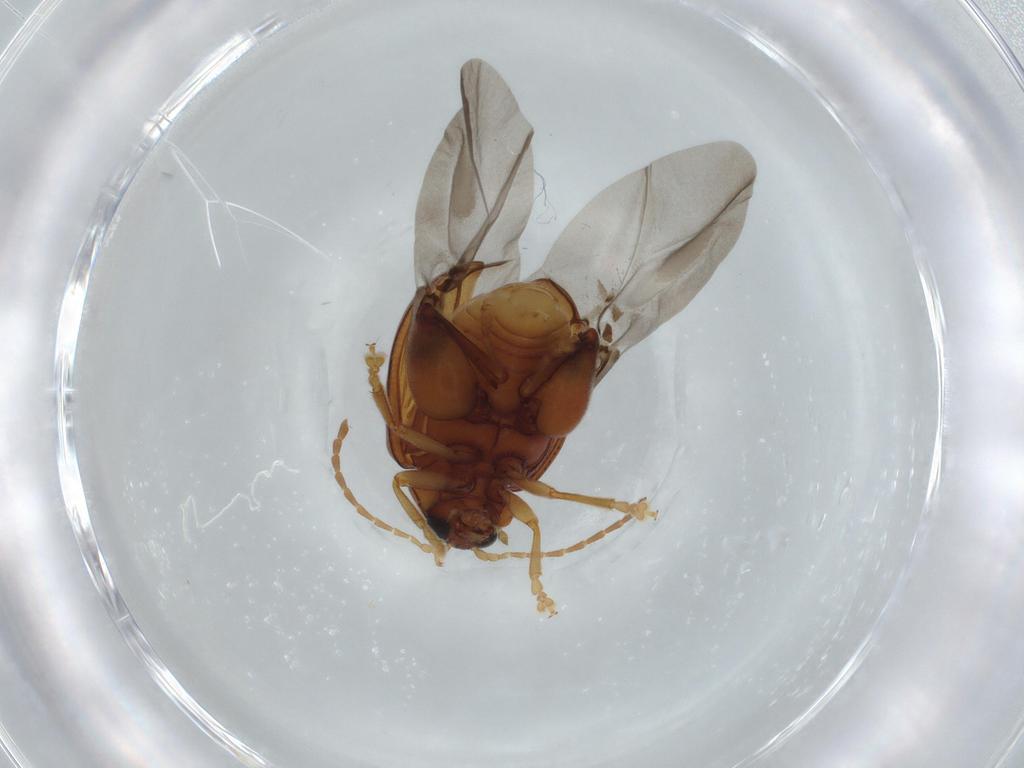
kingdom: Animalia
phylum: Arthropoda
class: Insecta
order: Coleoptera
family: Chrysomelidae
